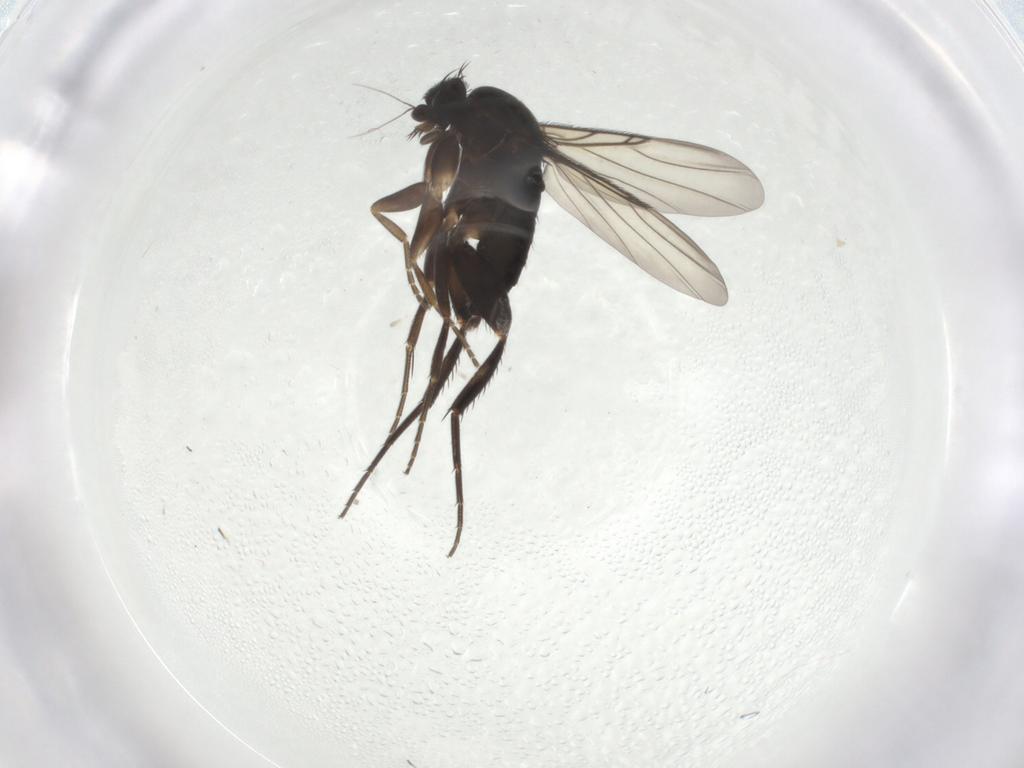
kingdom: Animalia
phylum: Arthropoda
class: Insecta
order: Diptera
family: Phoridae
